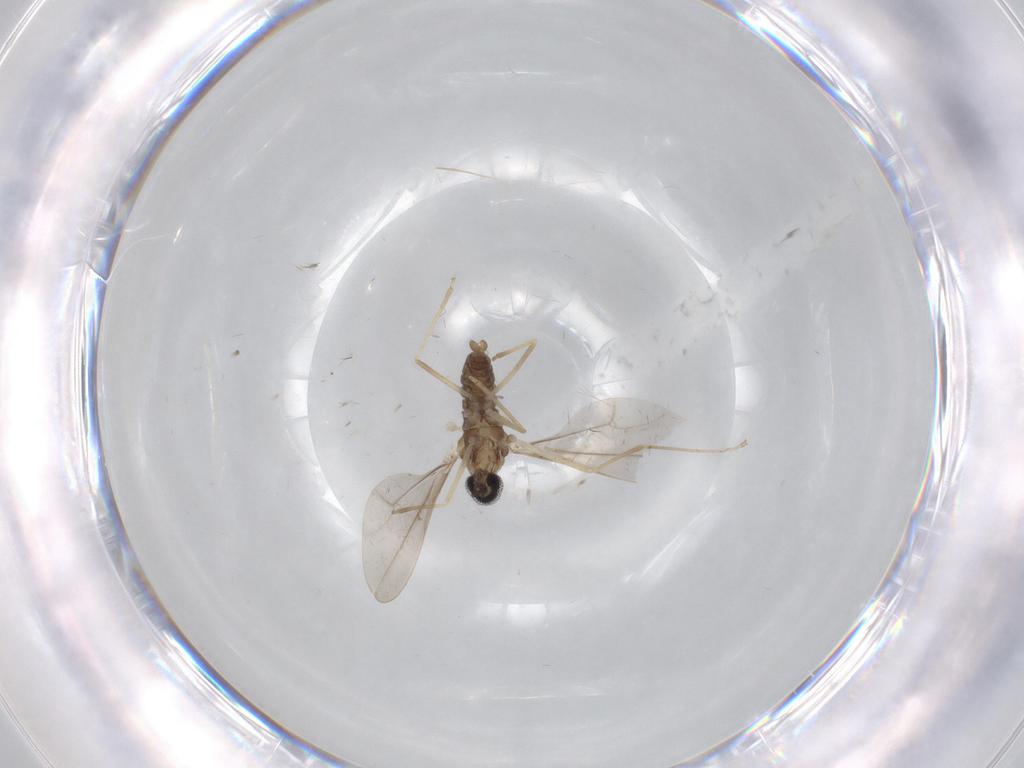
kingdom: Animalia
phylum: Arthropoda
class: Insecta
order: Diptera
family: Cecidomyiidae
